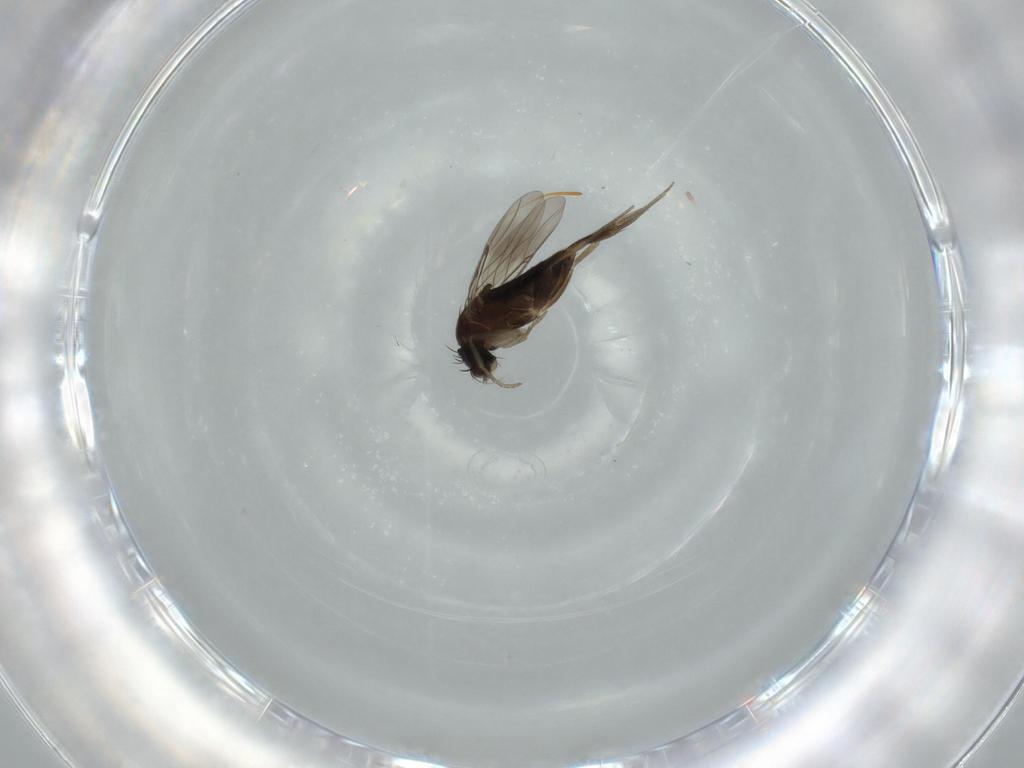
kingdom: Animalia
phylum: Arthropoda
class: Insecta
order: Diptera
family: Phoridae
